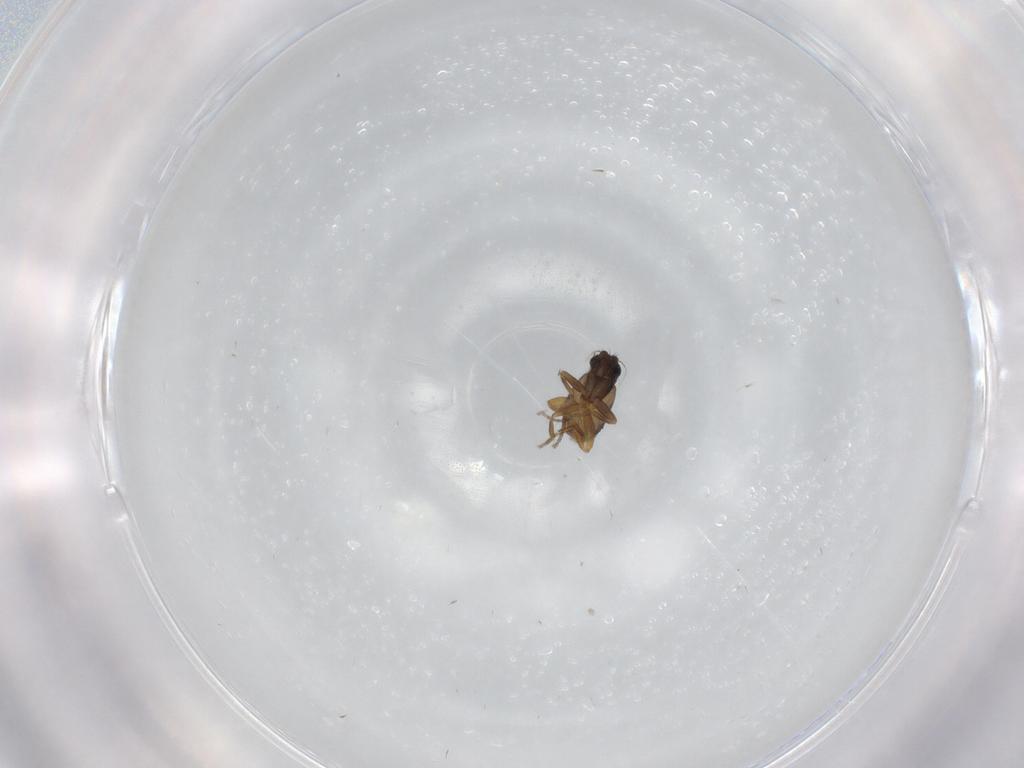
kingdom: Animalia
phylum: Arthropoda
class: Insecta
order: Diptera
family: Phoridae
